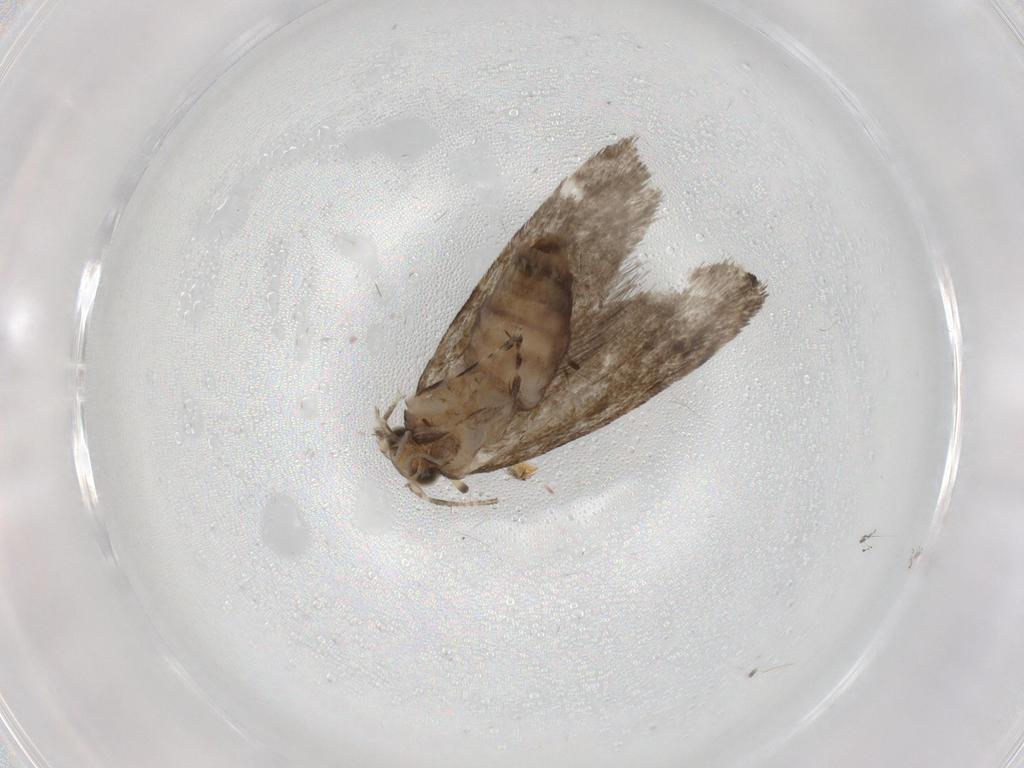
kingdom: Animalia
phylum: Arthropoda
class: Insecta
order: Lepidoptera
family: Tineidae
